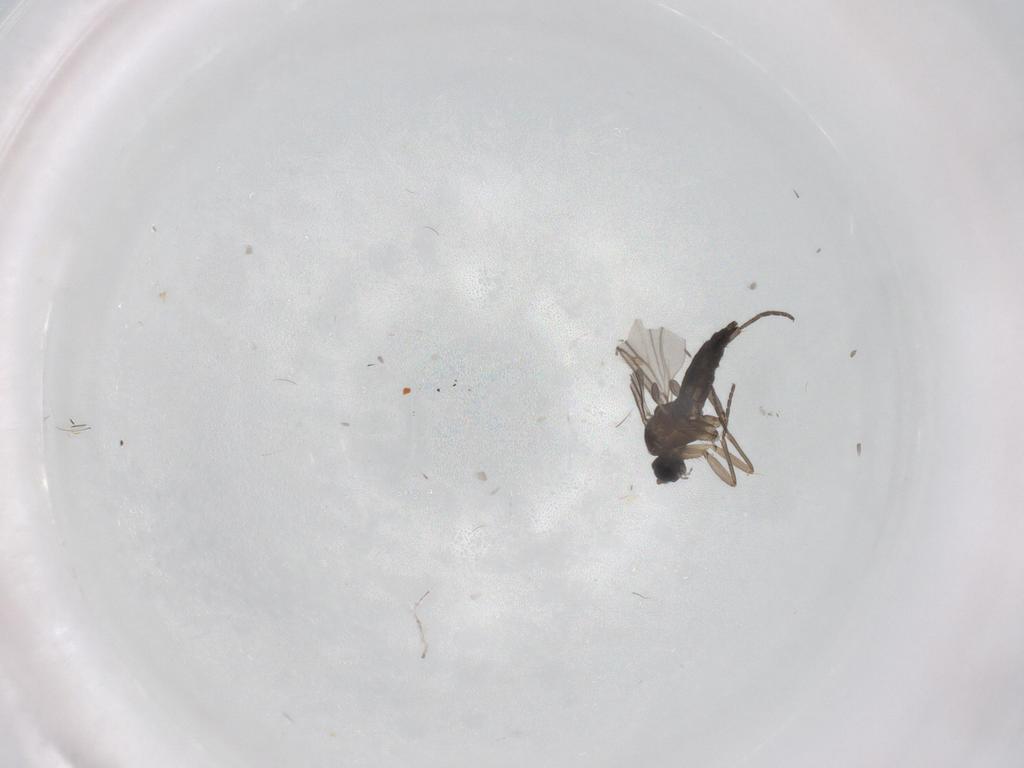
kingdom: Animalia
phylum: Arthropoda
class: Insecta
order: Diptera
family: Sciaridae
